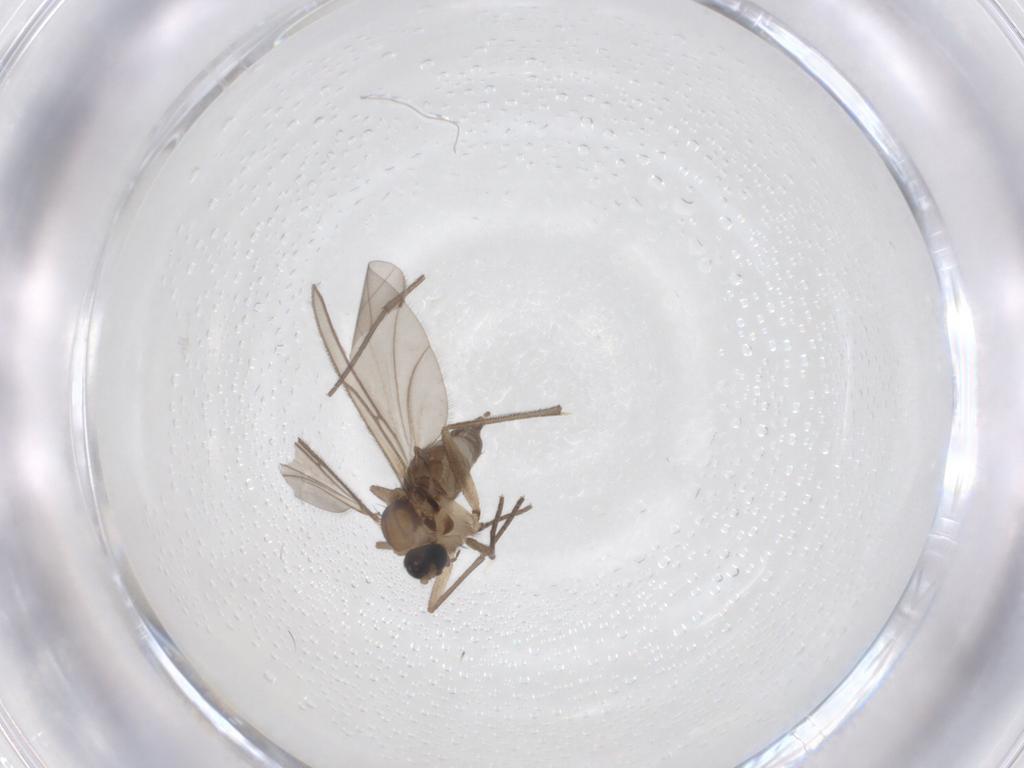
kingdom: Animalia
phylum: Arthropoda
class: Insecta
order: Diptera
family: Sciaridae
